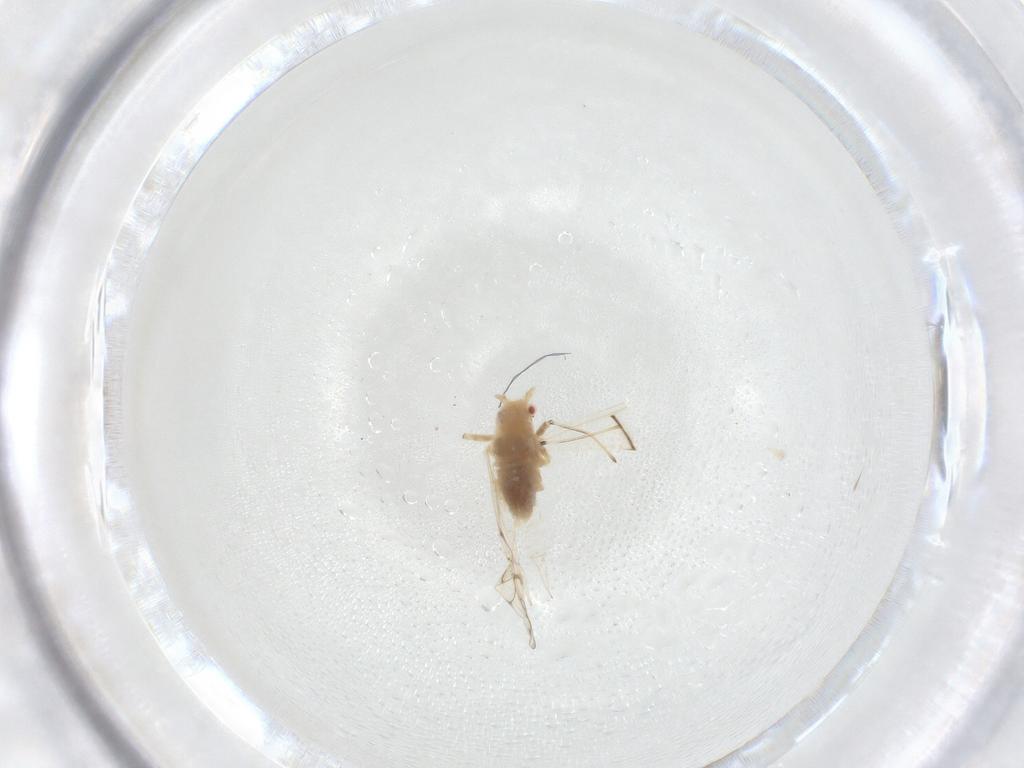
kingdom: Animalia
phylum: Arthropoda
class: Insecta
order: Hemiptera
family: Aphididae
